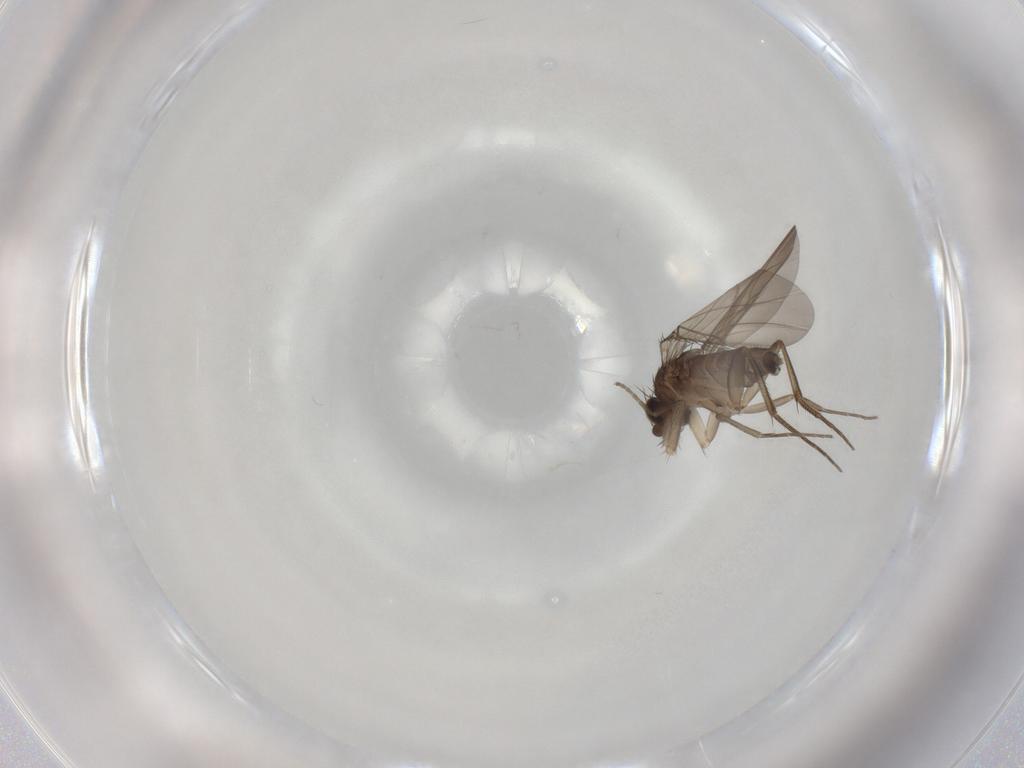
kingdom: Animalia
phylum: Arthropoda
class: Insecta
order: Diptera
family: Phoridae
